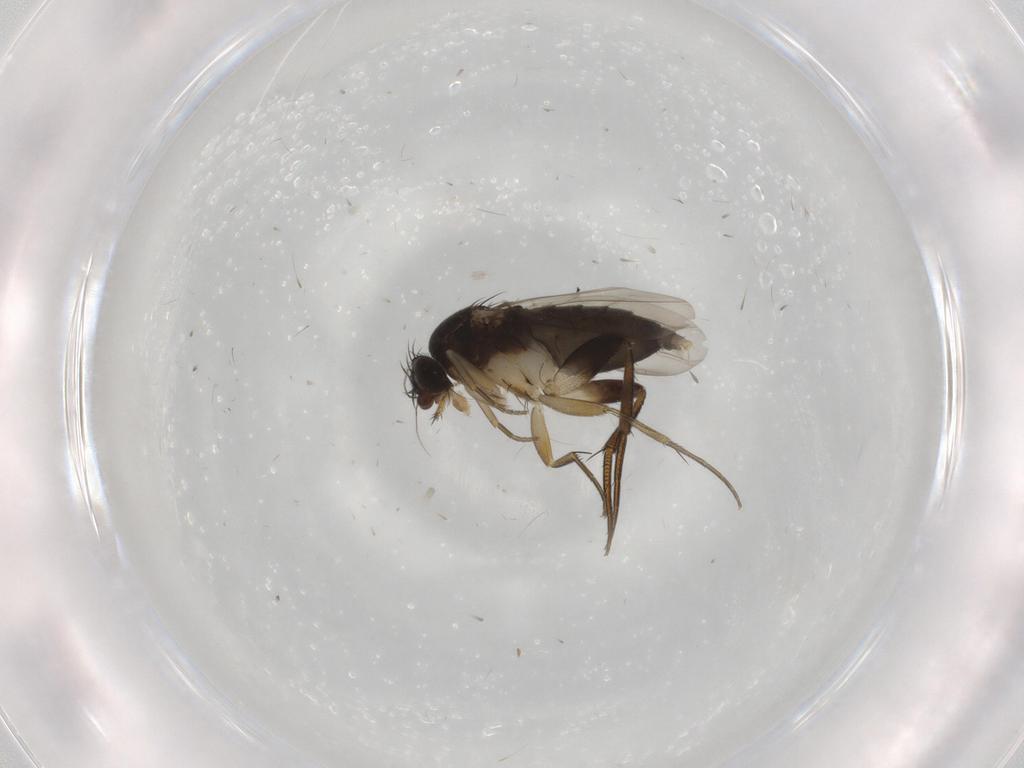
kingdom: Animalia
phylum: Arthropoda
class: Insecta
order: Diptera
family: Phoridae
